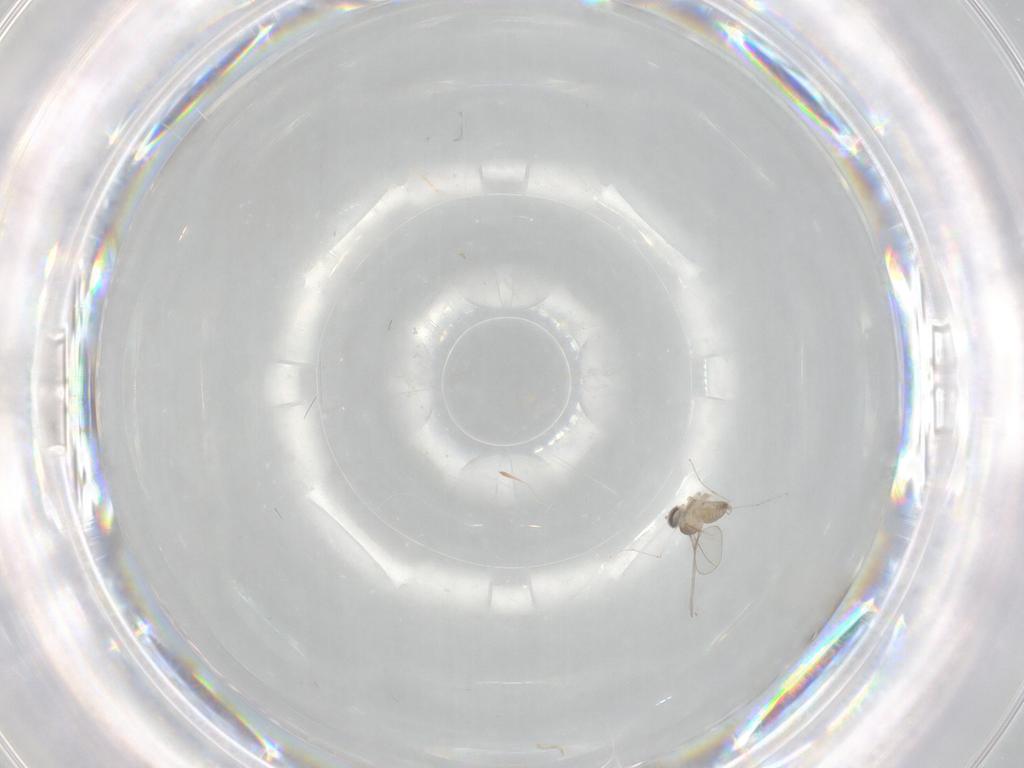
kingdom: Animalia
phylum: Arthropoda
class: Insecta
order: Diptera
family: Cecidomyiidae
